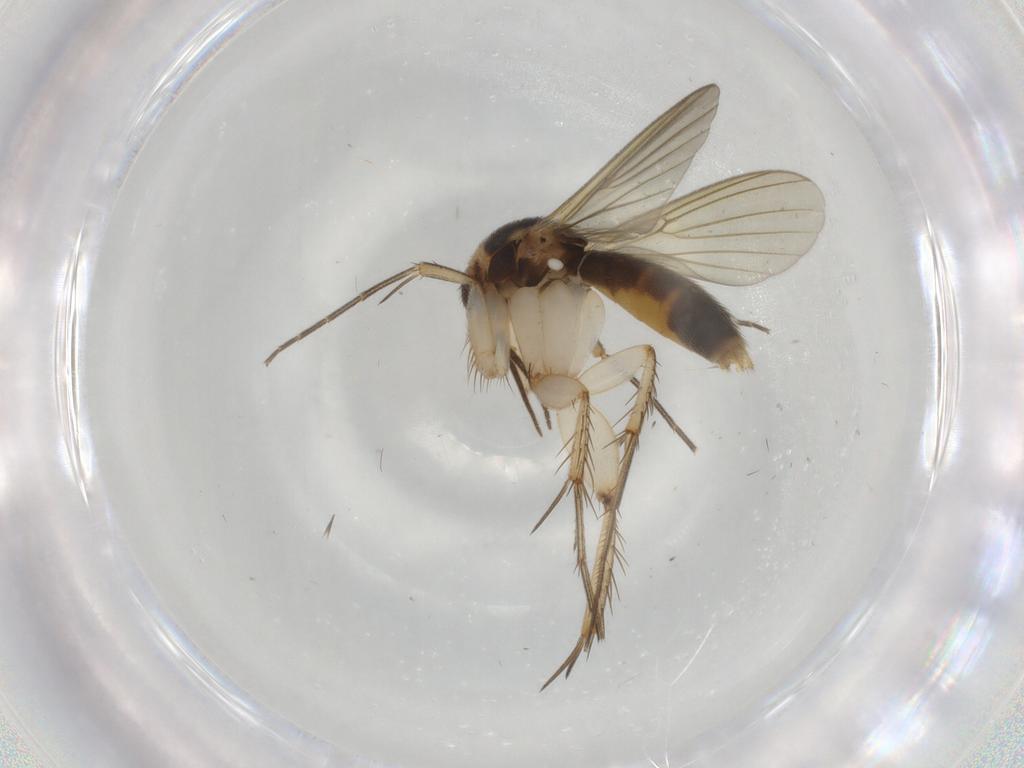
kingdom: Animalia
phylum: Arthropoda
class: Insecta
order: Diptera
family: Mycetophilidae
